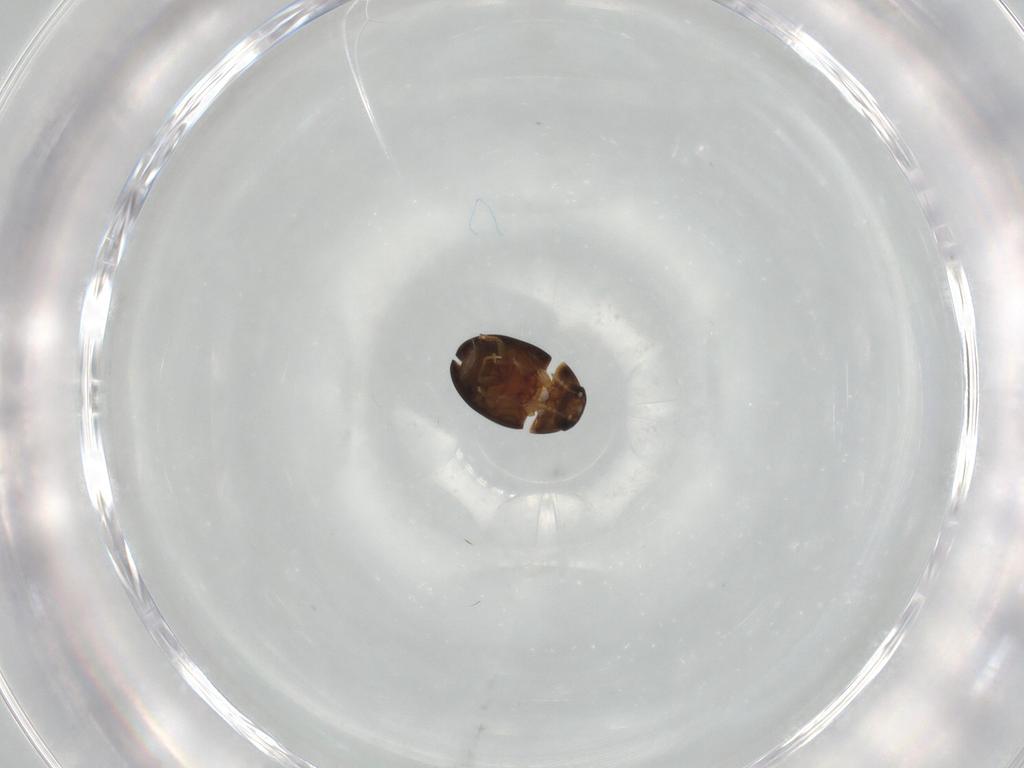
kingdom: Animalia
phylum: Arthropoda
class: Insecta
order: Coleoptera
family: Phalacridae
